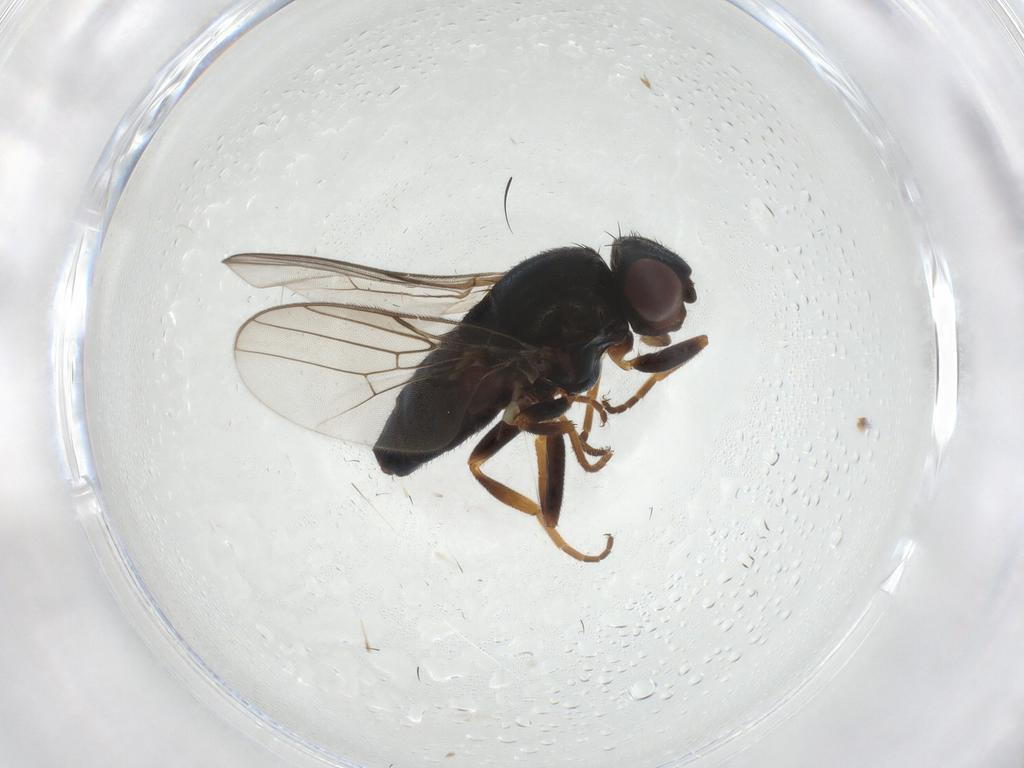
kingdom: Animalia
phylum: Arthropoda
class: Insecta
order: Diptera
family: Chloropidae
